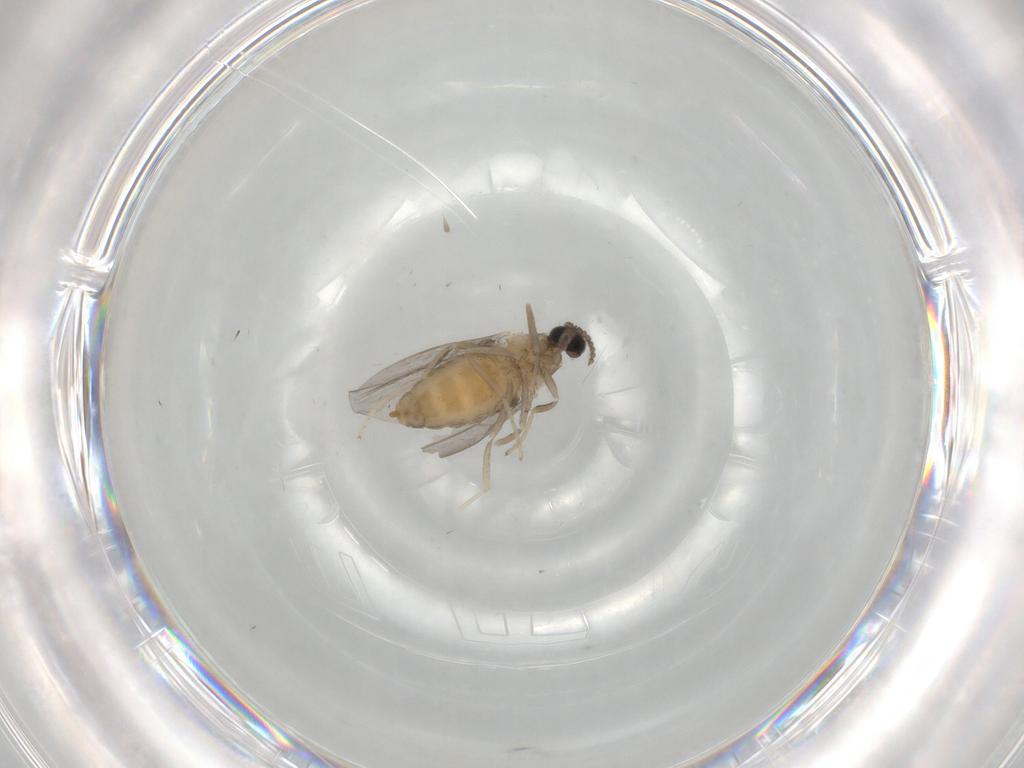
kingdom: Animalia
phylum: Arthropoda
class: Insecta
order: Diptera
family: Cecidomyiidae
